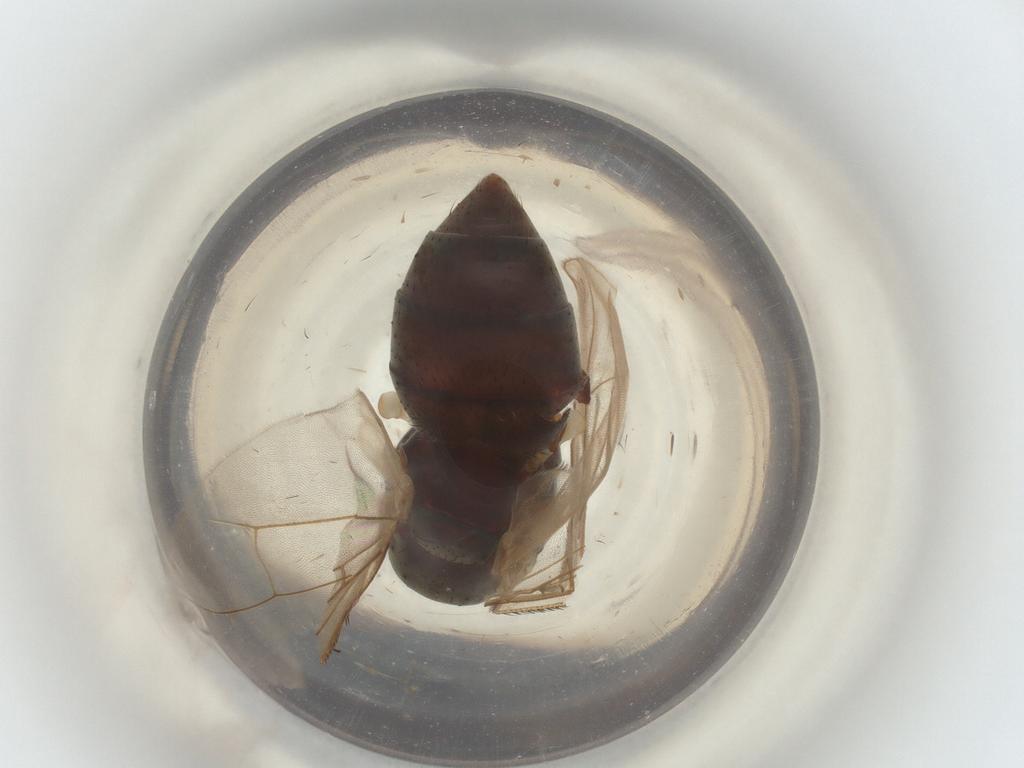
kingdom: Animalia
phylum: Arthropoda
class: Insecta
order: Diptera
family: Muscidae
